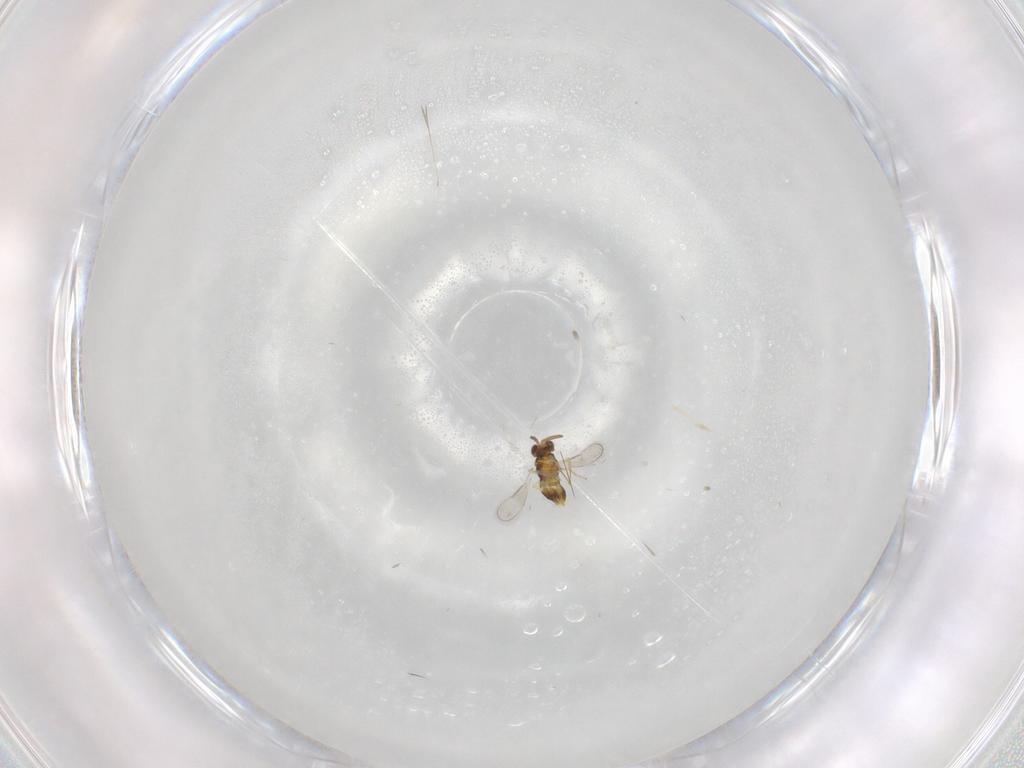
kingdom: Animalia
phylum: Arthropoda
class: Insecta
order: Hymenoptera
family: Aphelinidae
